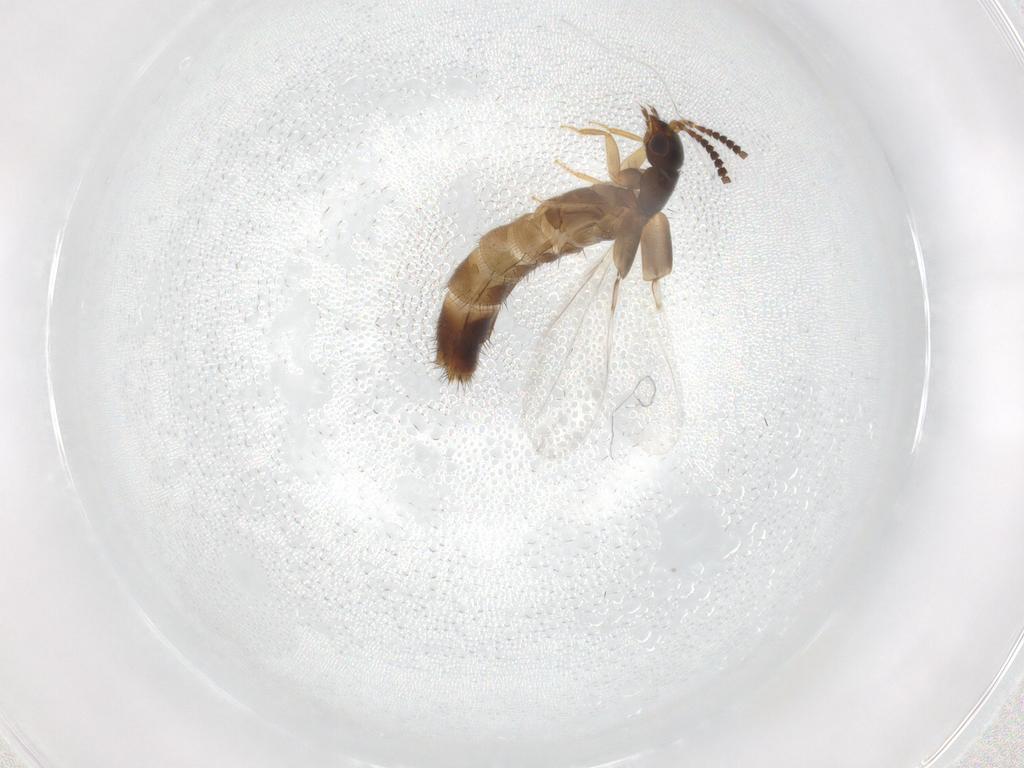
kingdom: Animalia
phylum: Arthropoda
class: Insecta
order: Coleoptera
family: Staphylinidae
